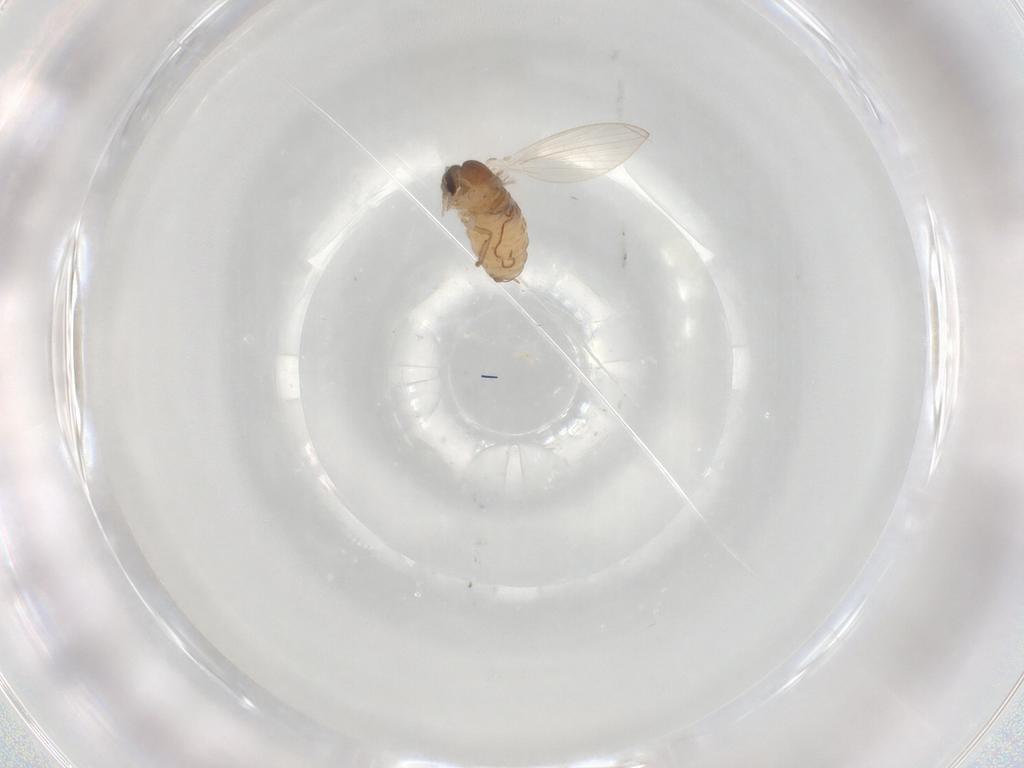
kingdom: Animalia
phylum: Arthropoda
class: Insecta
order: Diptera
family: Psychodidae
